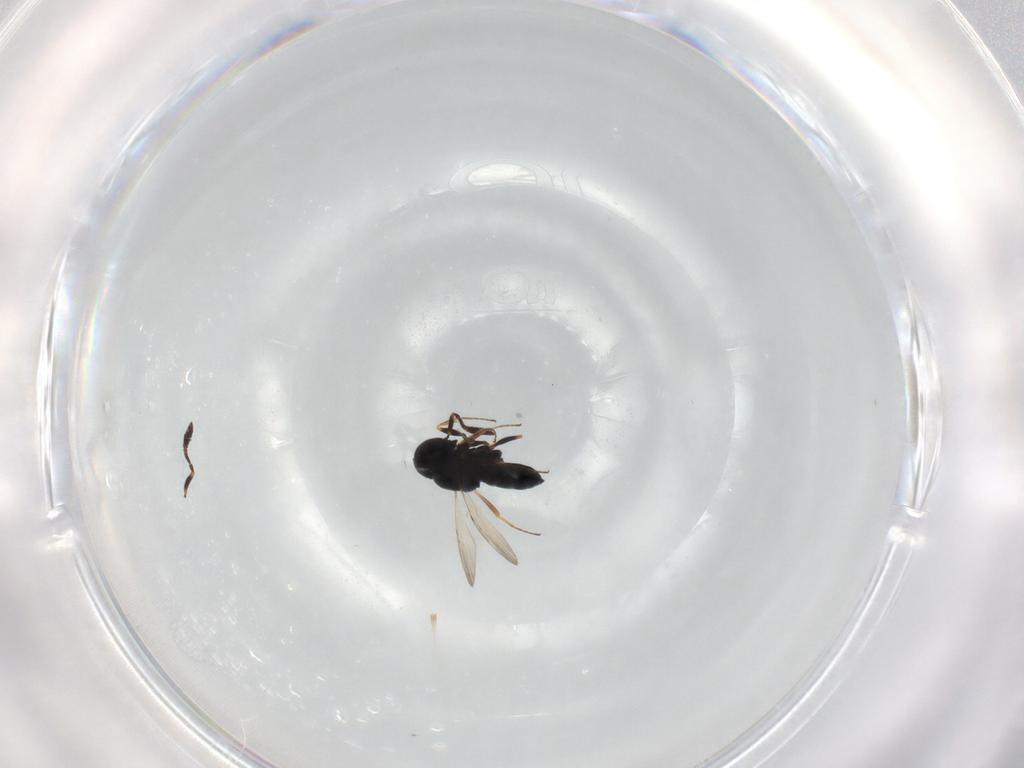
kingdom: Animalia
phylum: Arthropoda
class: Insecta
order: Hymenoptera
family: Scelionidae
